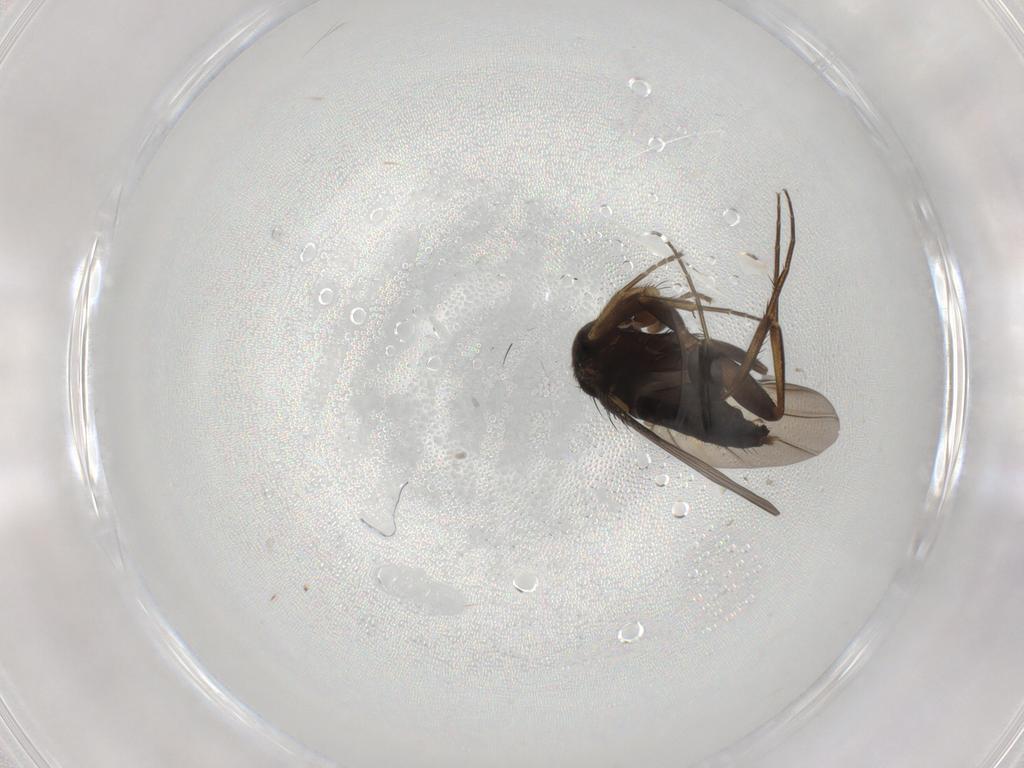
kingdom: Animalia
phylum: Arthropoda
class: Insecta
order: Diptera
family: Phoridae
